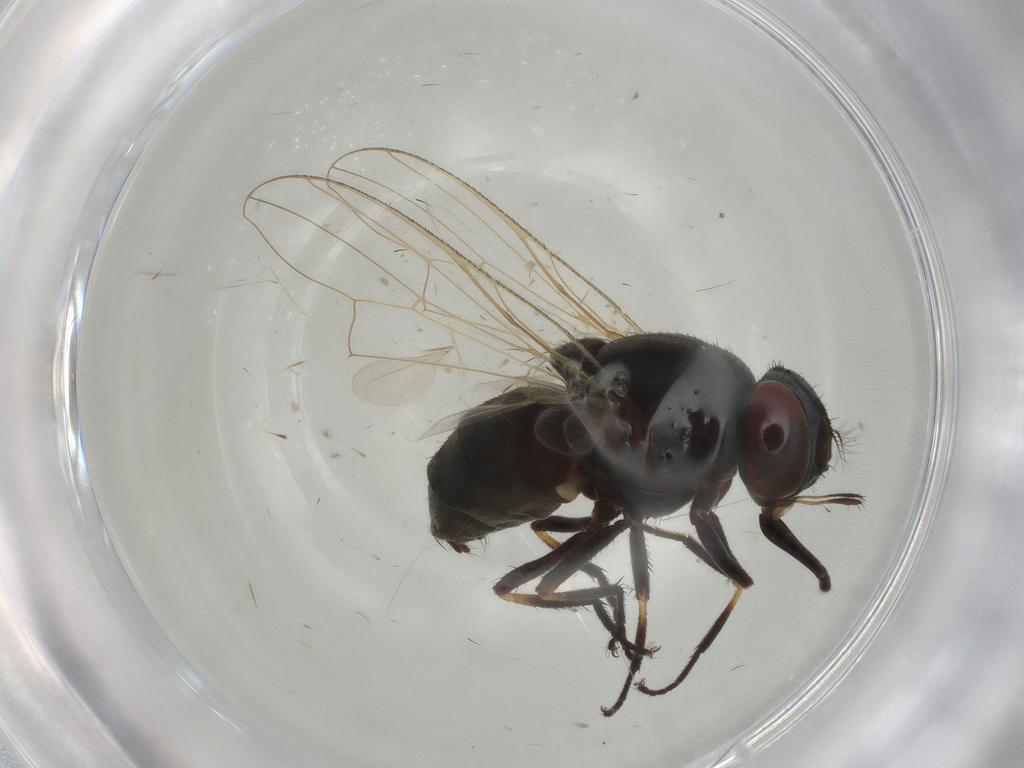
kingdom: Animalia
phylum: Arthropoda
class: Insecta
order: Diptera
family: Muscidae
